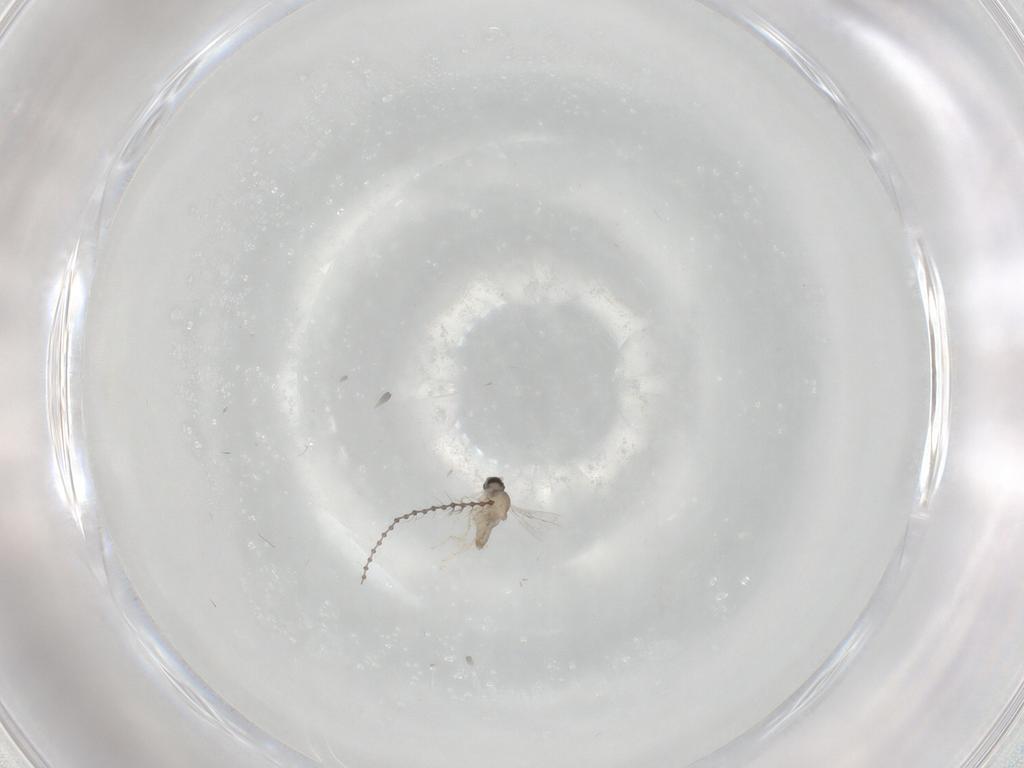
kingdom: Animalia
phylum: Arthropoda
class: Insecta
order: Diptera
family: Cecidomyiidae
